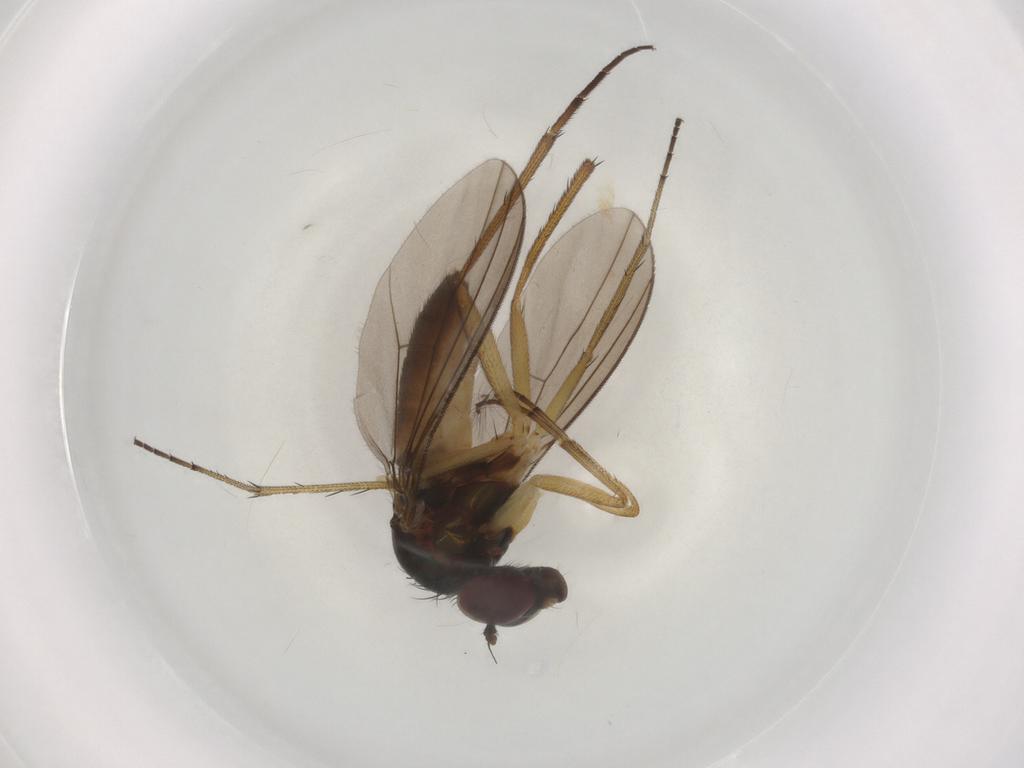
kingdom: Animalia
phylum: Arthropoda
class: Insecta
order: Diptera
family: Dolichopodidae
